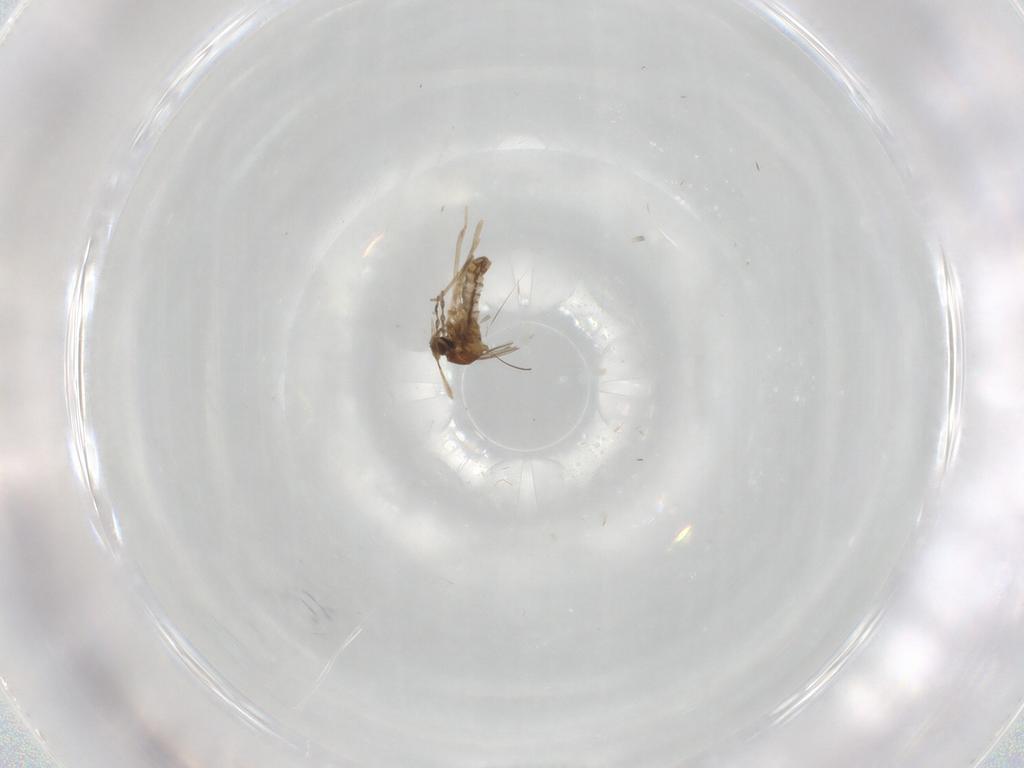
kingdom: Animalia
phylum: Arthropoda
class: Insecta
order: Diptera
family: Cecidomyiidae
